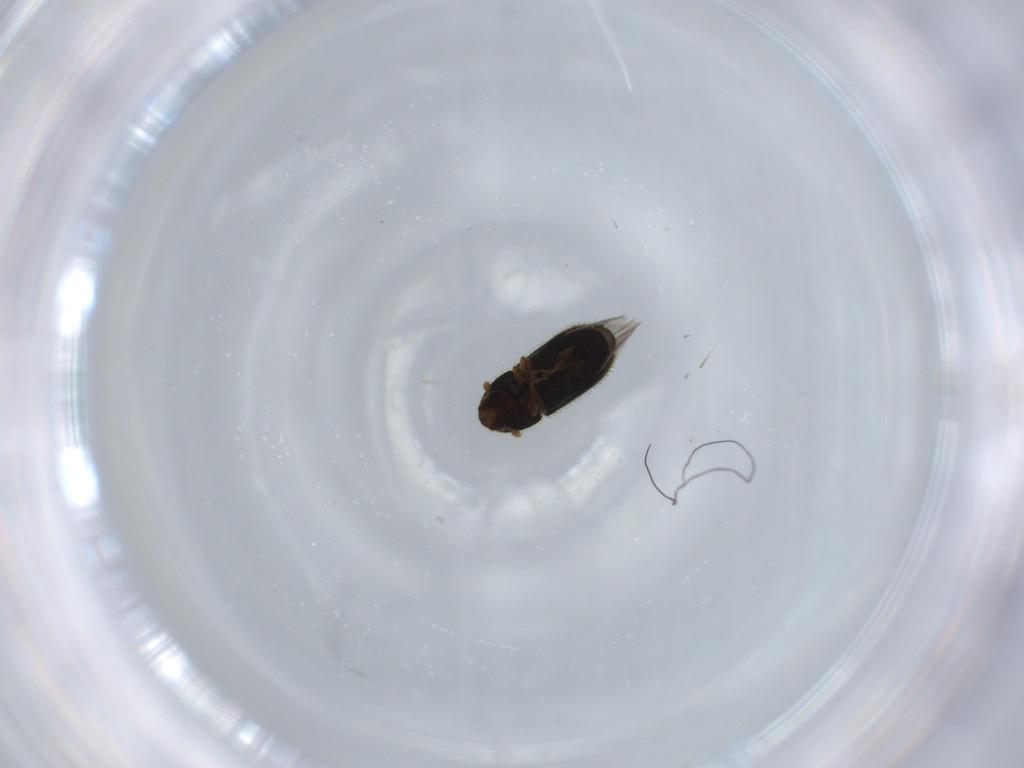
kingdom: Animalia
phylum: Arthropoda
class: Insecta
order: Coleoptera
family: Curculionidae
